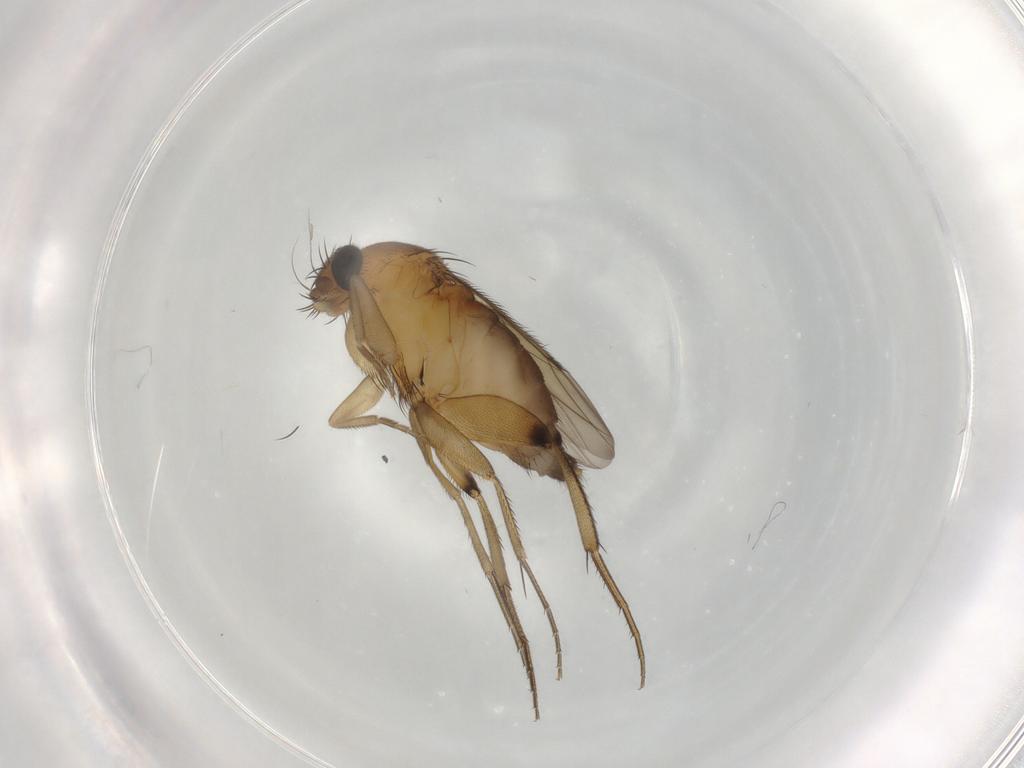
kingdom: Animalia
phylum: Arthropoda
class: Insecta
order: Diptera
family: Phoridae
